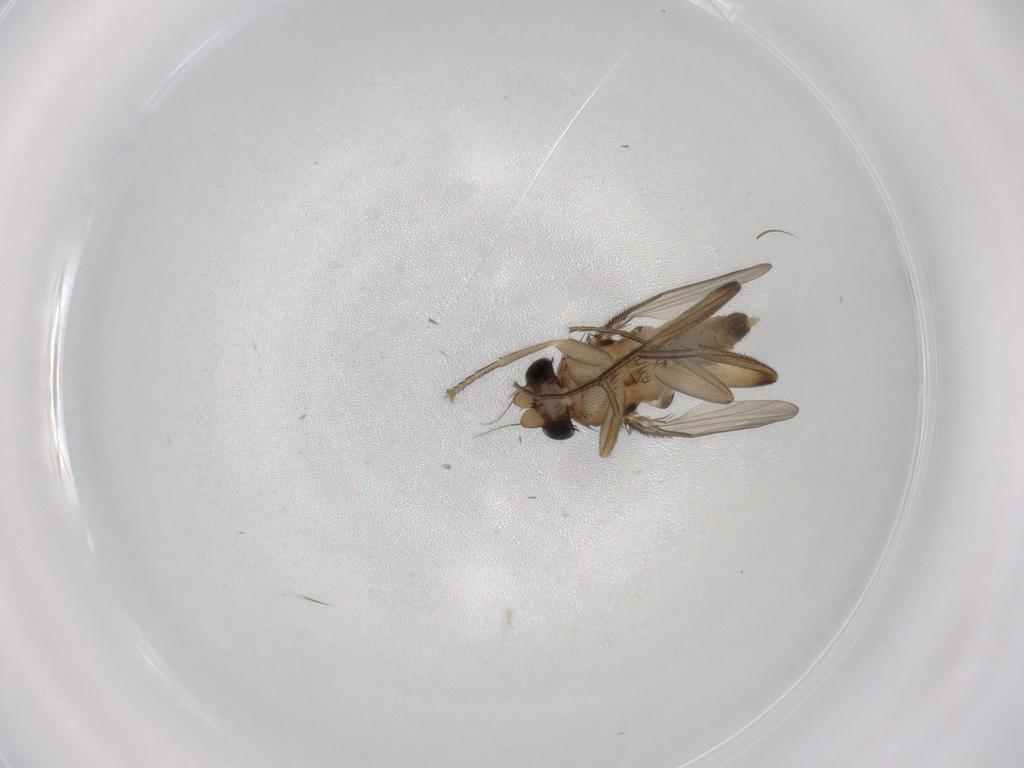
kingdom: Animalia
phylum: Arthropoda
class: Insecta
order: Diptera
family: Phoridae
